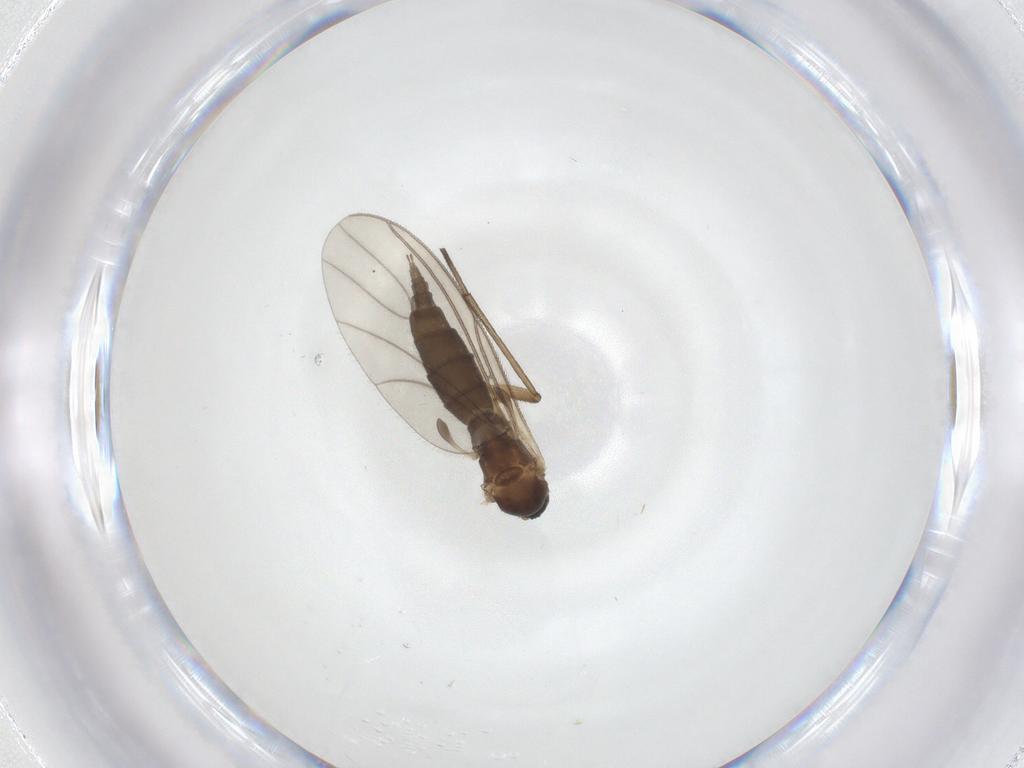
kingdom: Animalia
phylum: Arthropoda
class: Insecta
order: Diptera
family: Sciaridae
